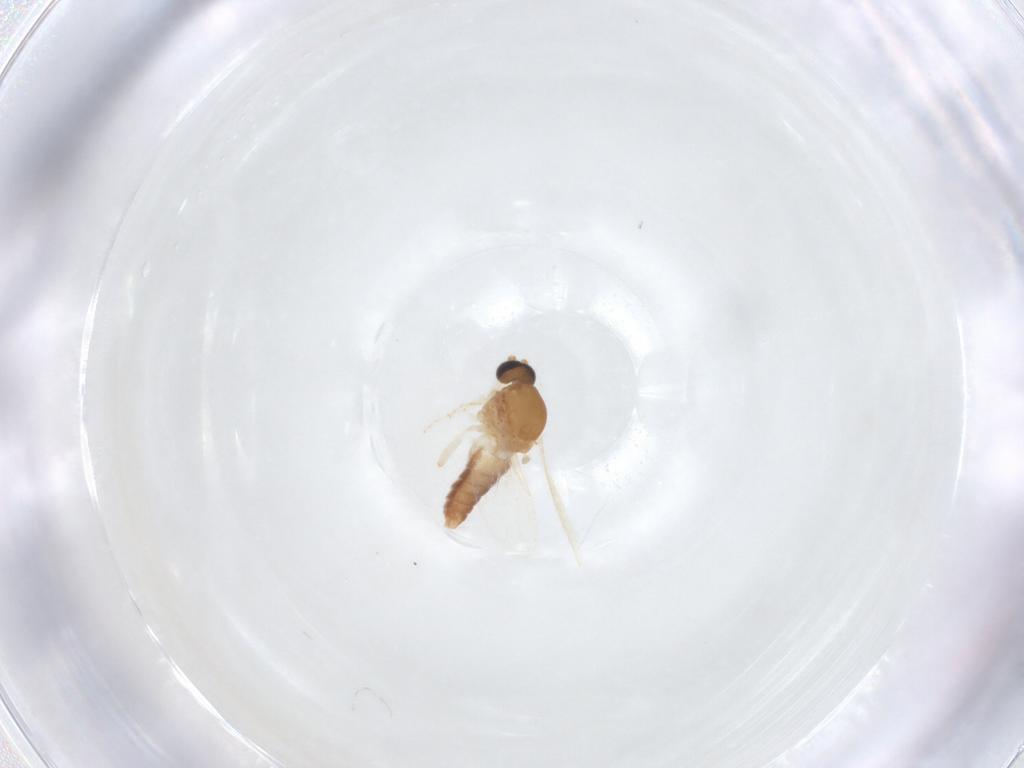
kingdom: Animalia
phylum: Arthropoda
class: Insecta
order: Diptera
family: Ceratopogonidae
